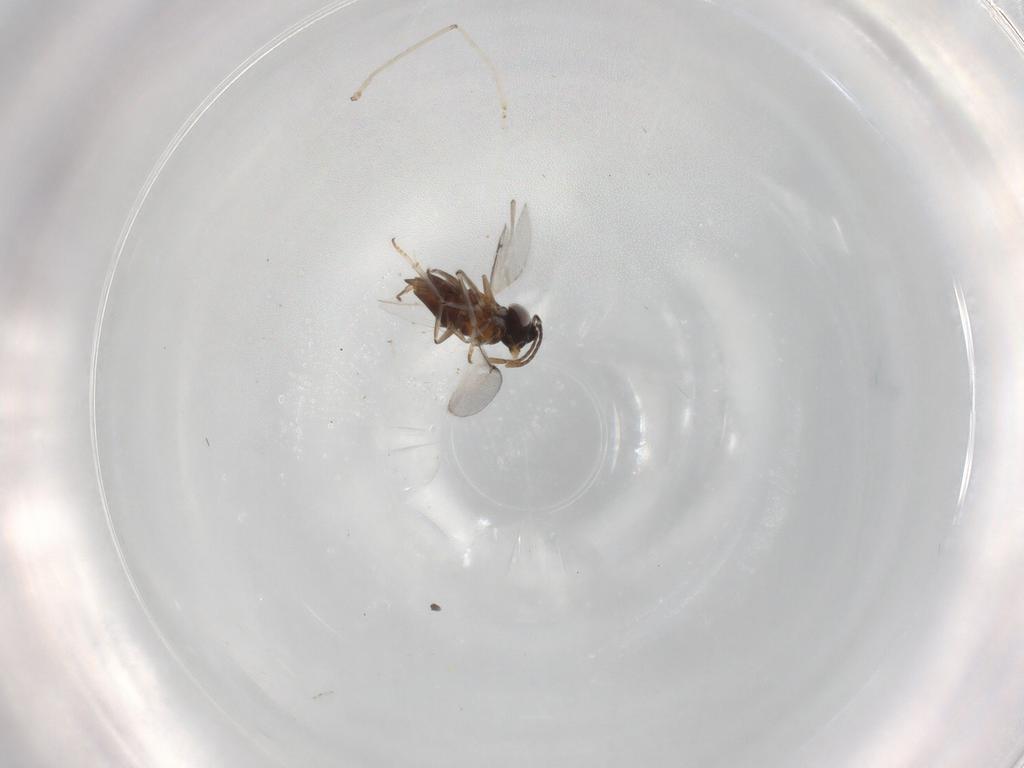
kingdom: Animalia
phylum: Arthropoda
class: Insecta
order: Hymenoptera
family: Encyrtidae
